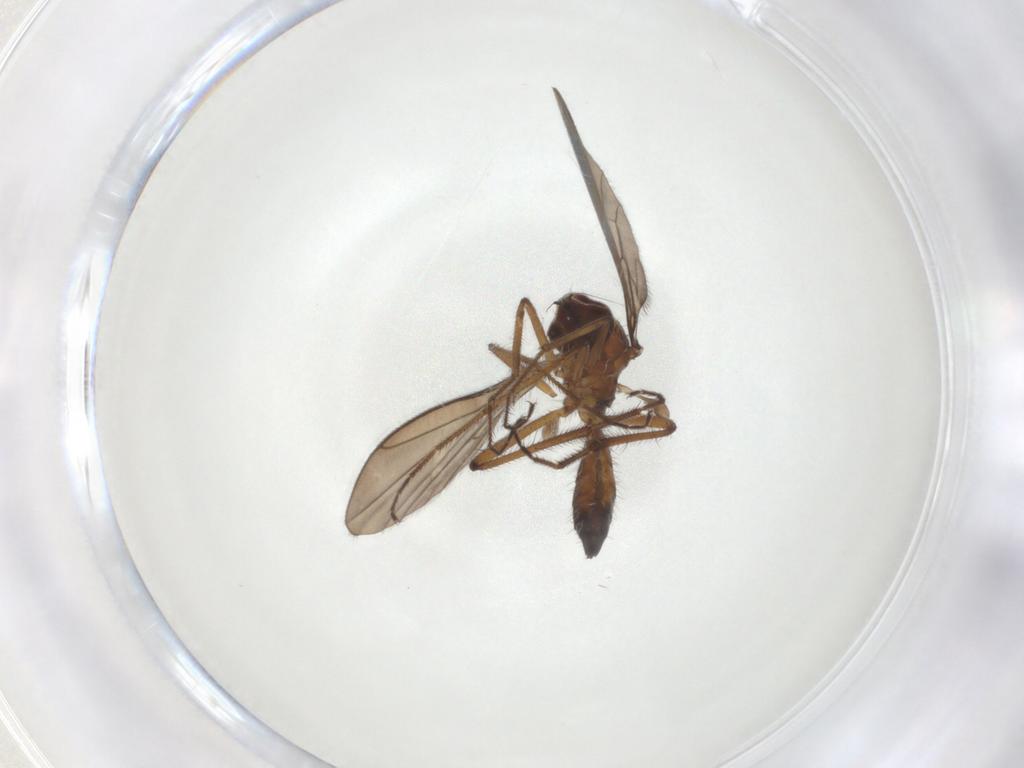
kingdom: Animalia
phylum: Arthropoda
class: Insecta
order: Diptera
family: Hybotidae
